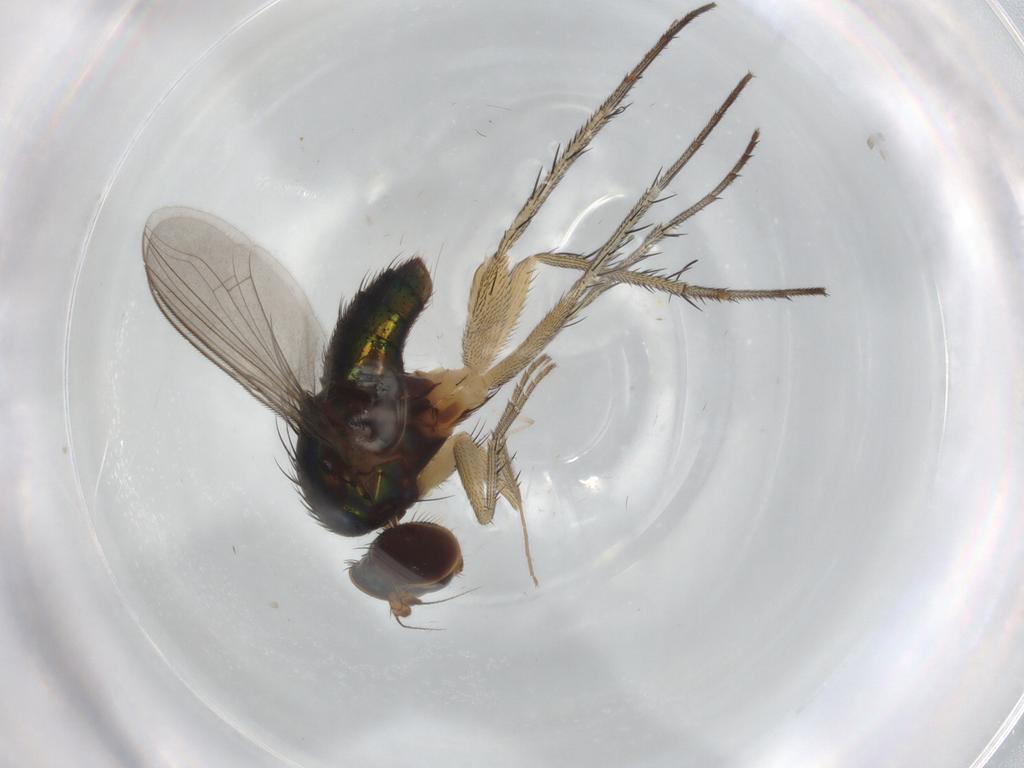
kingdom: Animalia
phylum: Arthropoda
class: Insecta
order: Diptera
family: Dolichopodidae
